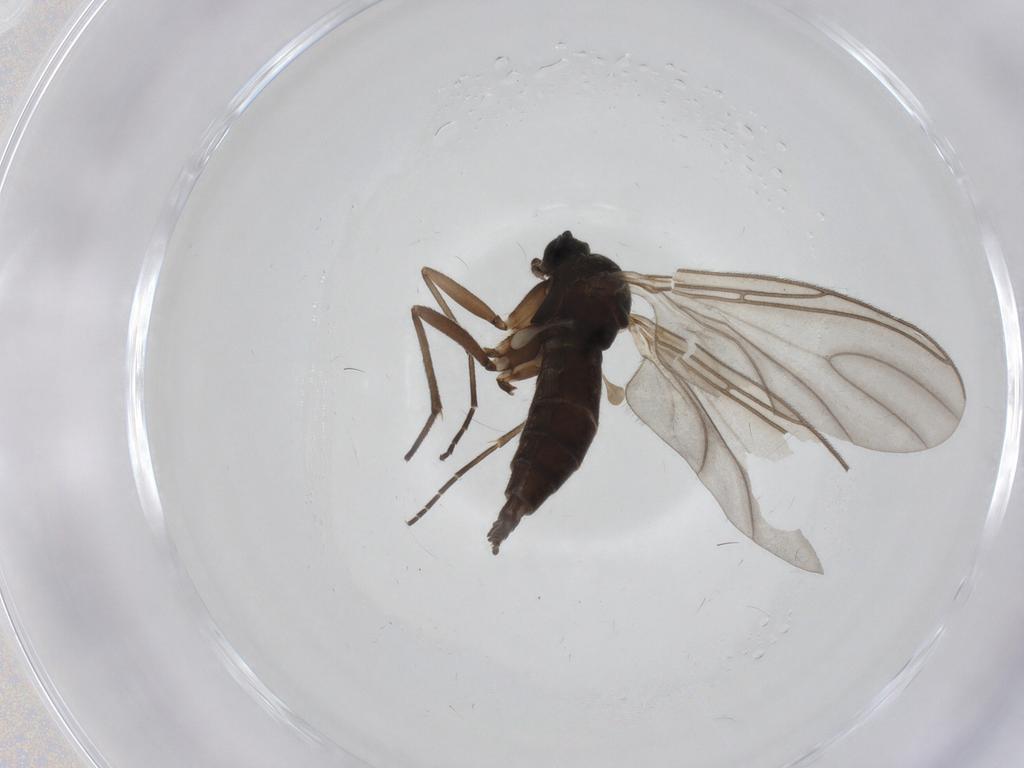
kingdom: Animalia
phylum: Arthropoda
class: Insecta
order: Diptera
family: Sciaridae
